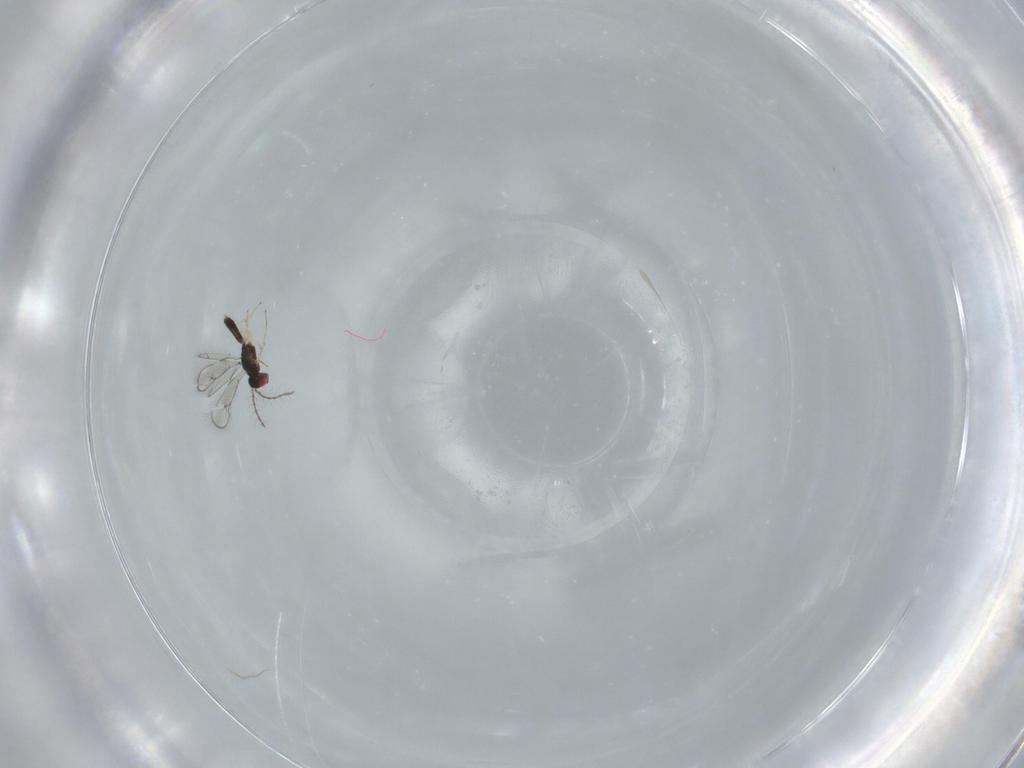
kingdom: Animalia
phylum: Arthropoda
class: Insecta
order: Hymenoptera
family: Pteromalidae
